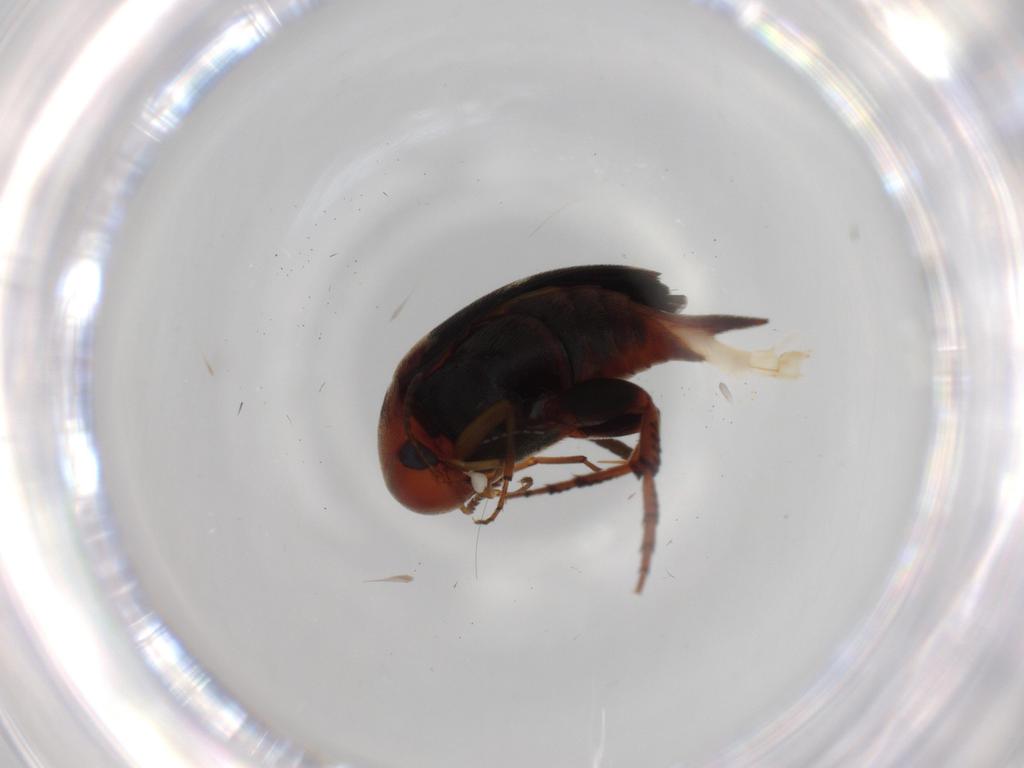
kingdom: Animalia
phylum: Arthropoda
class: Insecta
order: Coleoptera
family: Mordellidae
